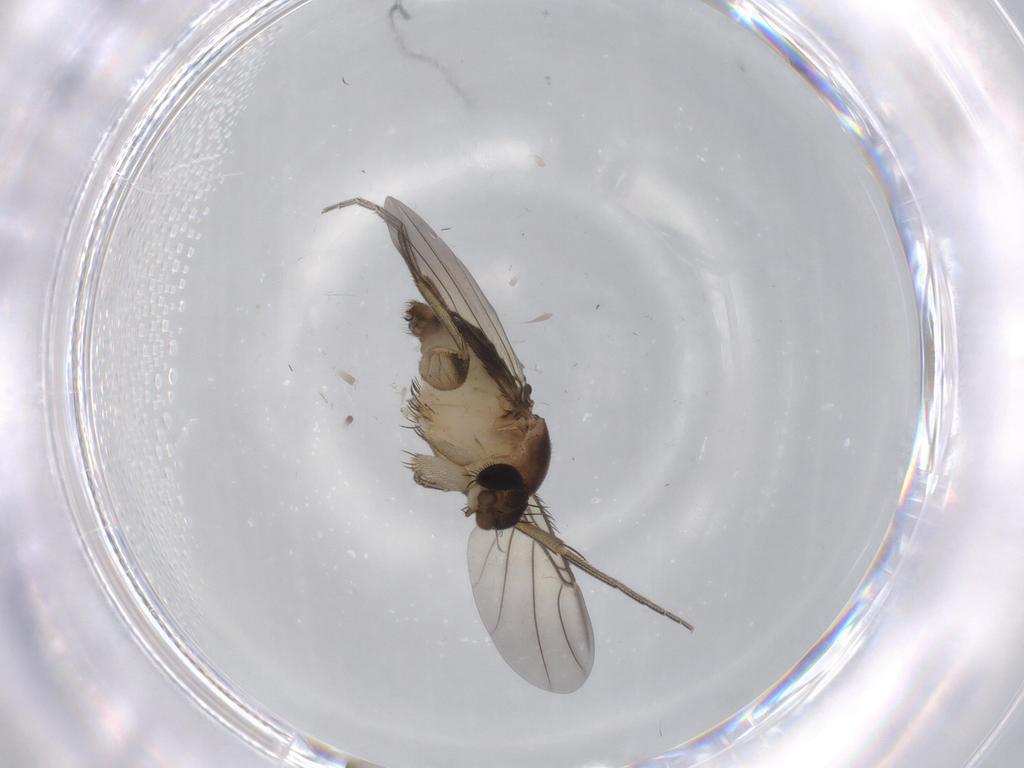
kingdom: Animalia
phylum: Arthropoda
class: Insecta
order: Diptera
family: Phoridae
